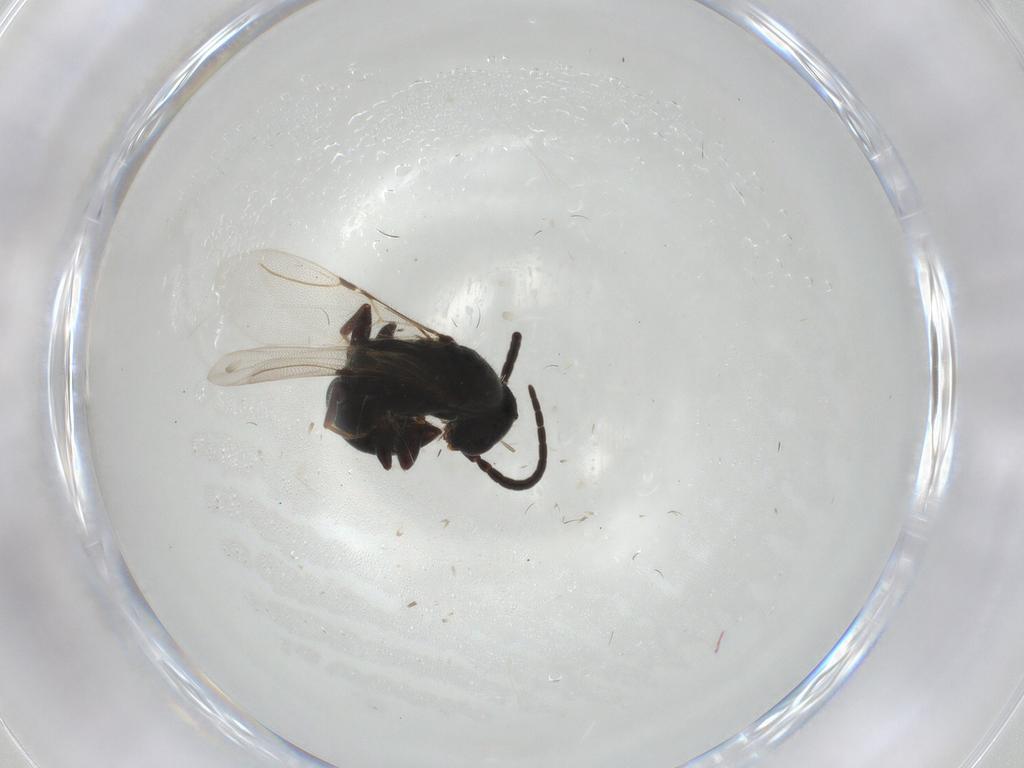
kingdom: Animalia
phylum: Arthropoda
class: Insecta
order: Hymenoptera
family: Bethylidae
